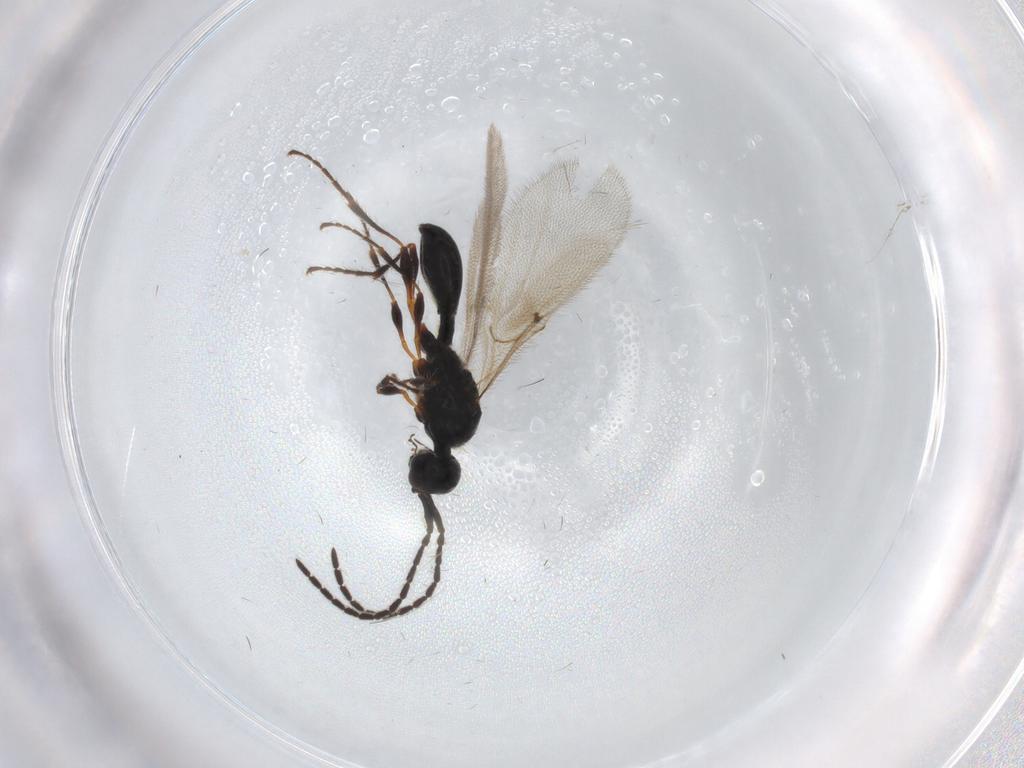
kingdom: Animalia
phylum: Arthropoda
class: Insecta
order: Hymenoptera
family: Diapriidae
